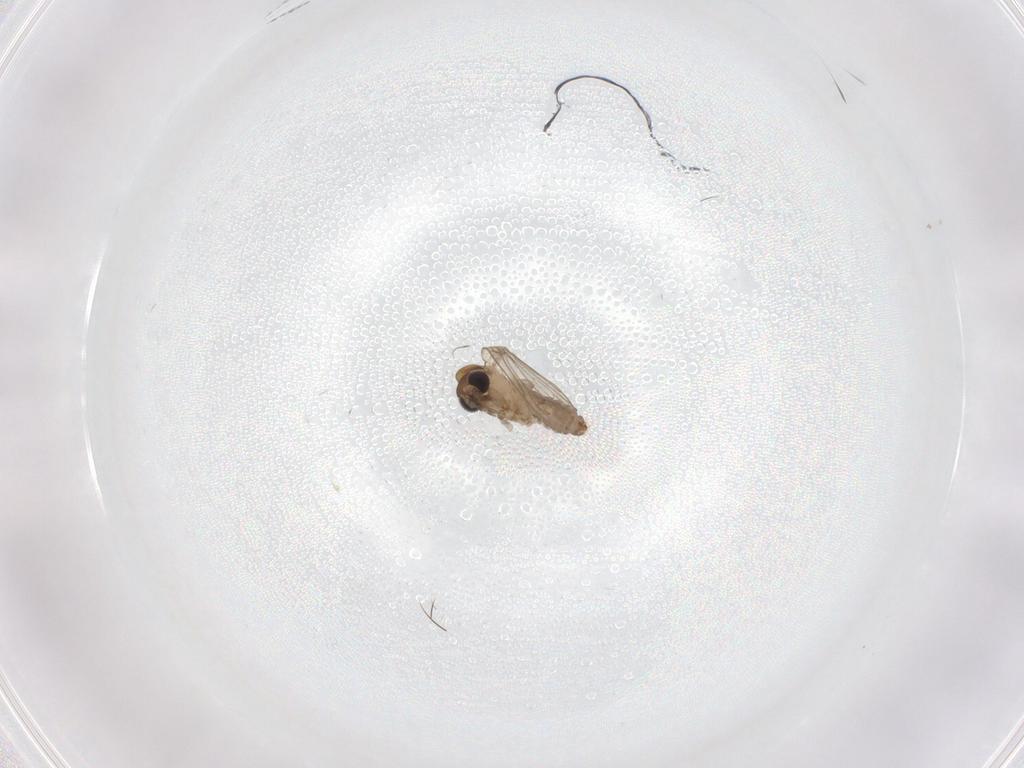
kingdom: Animalia
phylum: Arthropoda
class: Insecta
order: Diptera
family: Psychodidae
